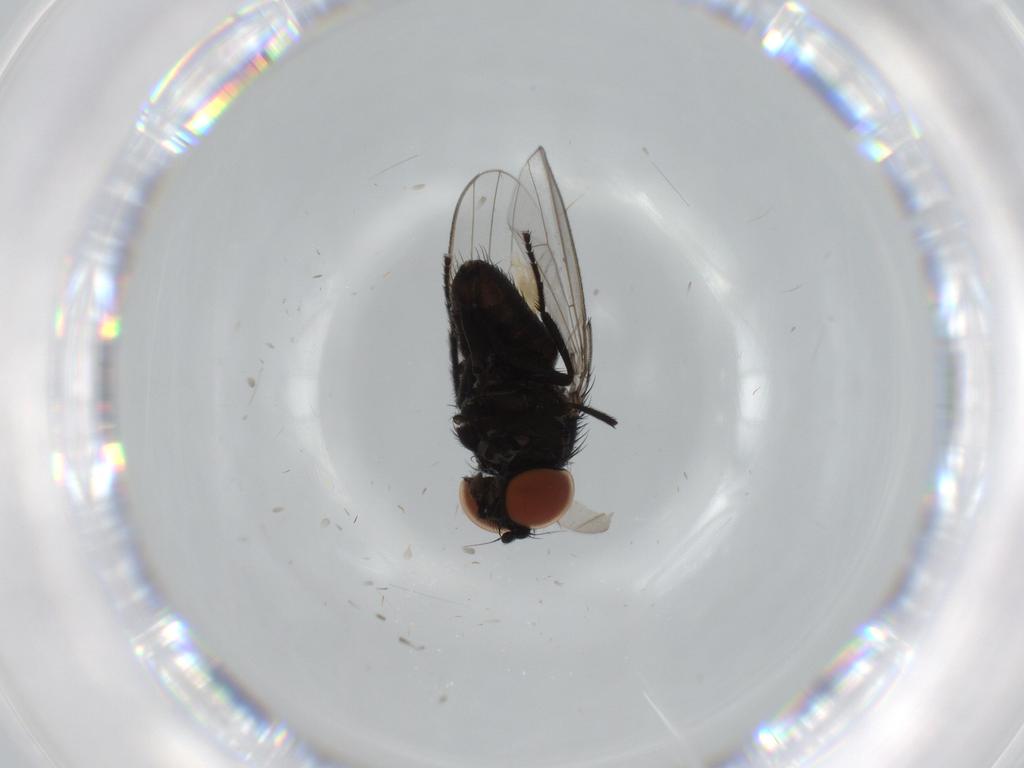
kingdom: Animalia
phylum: Arthropoda
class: Insecta
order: Diptera
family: Milichiidae
